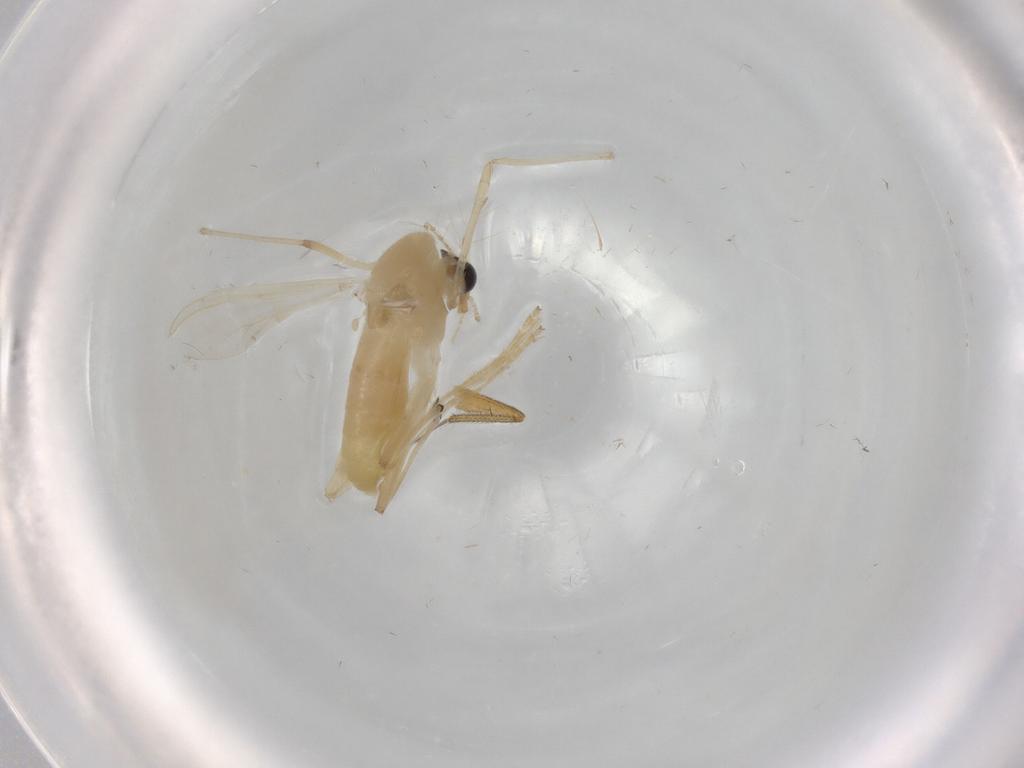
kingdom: Animalia
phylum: Arthropoda
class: Insecta
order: Diptera
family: Chironomidae
